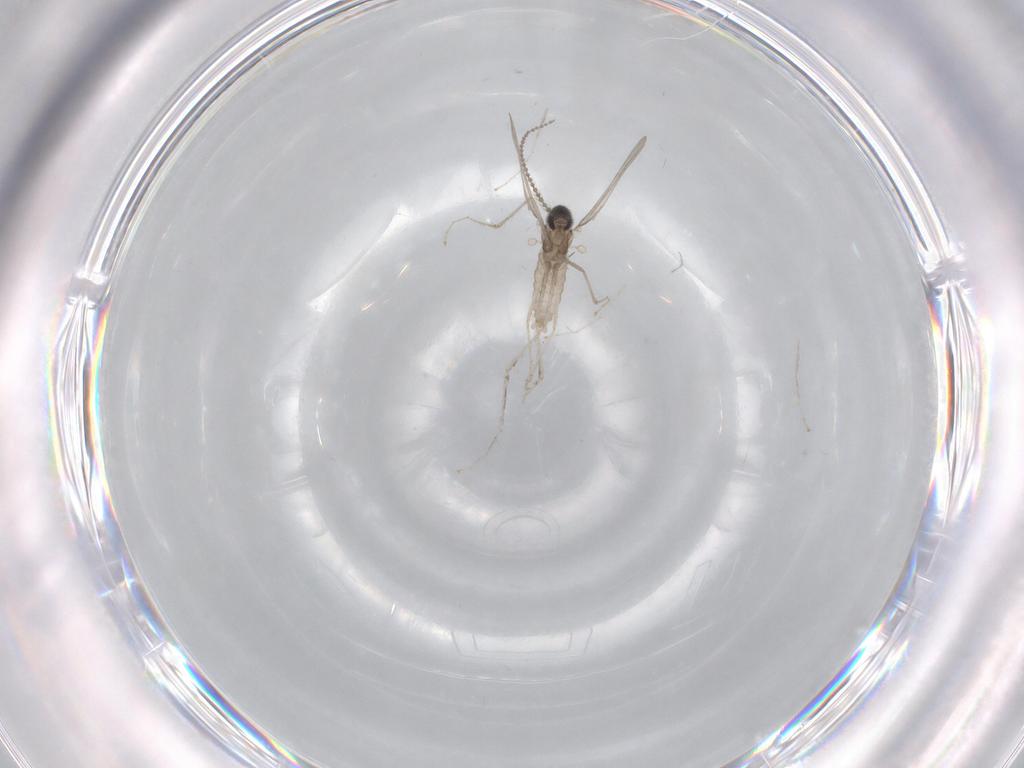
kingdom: Animalia
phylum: Arthropoda
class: Insecta
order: Diptera
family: Cecidomyiidae
